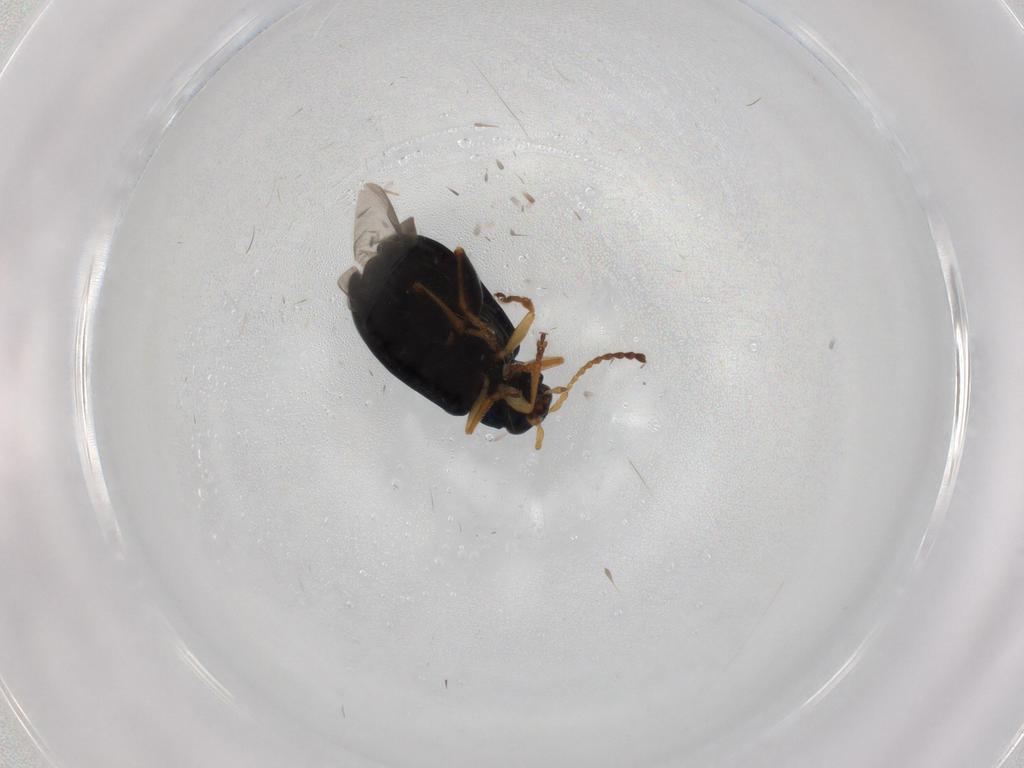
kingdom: Animalia
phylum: Arthropoda
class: Insecta
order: Coleoptera
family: Chrysomelidae
